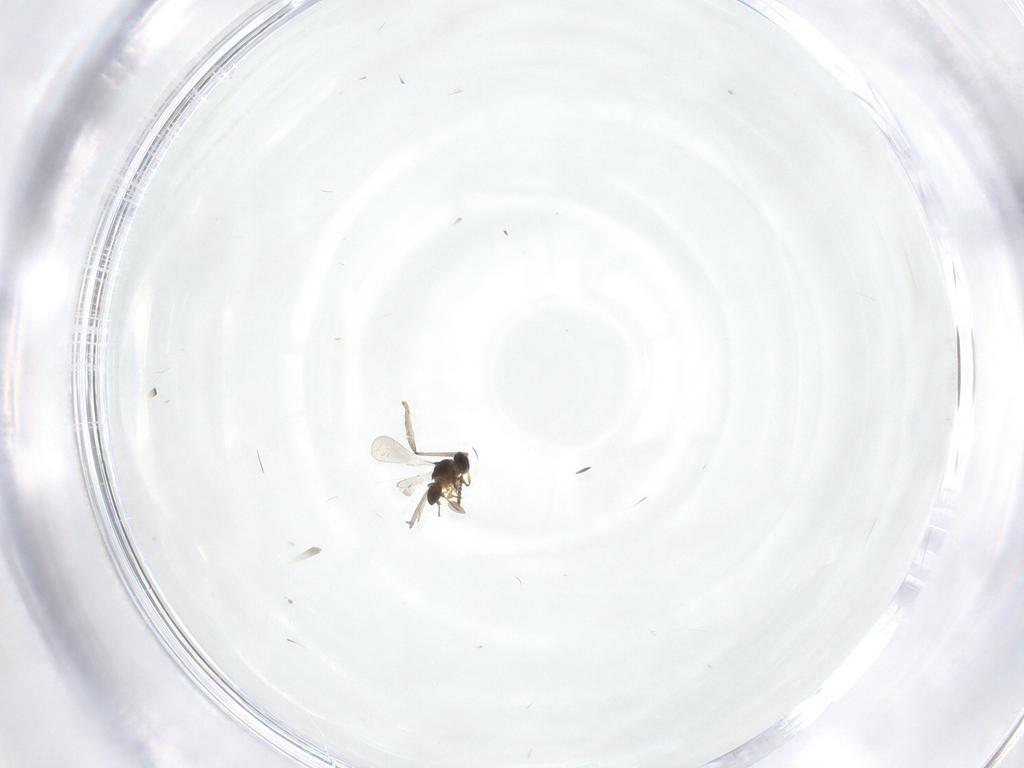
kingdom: Animalia
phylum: Arthropoda
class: Insecta
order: Hymenoptera
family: Platygastridae
